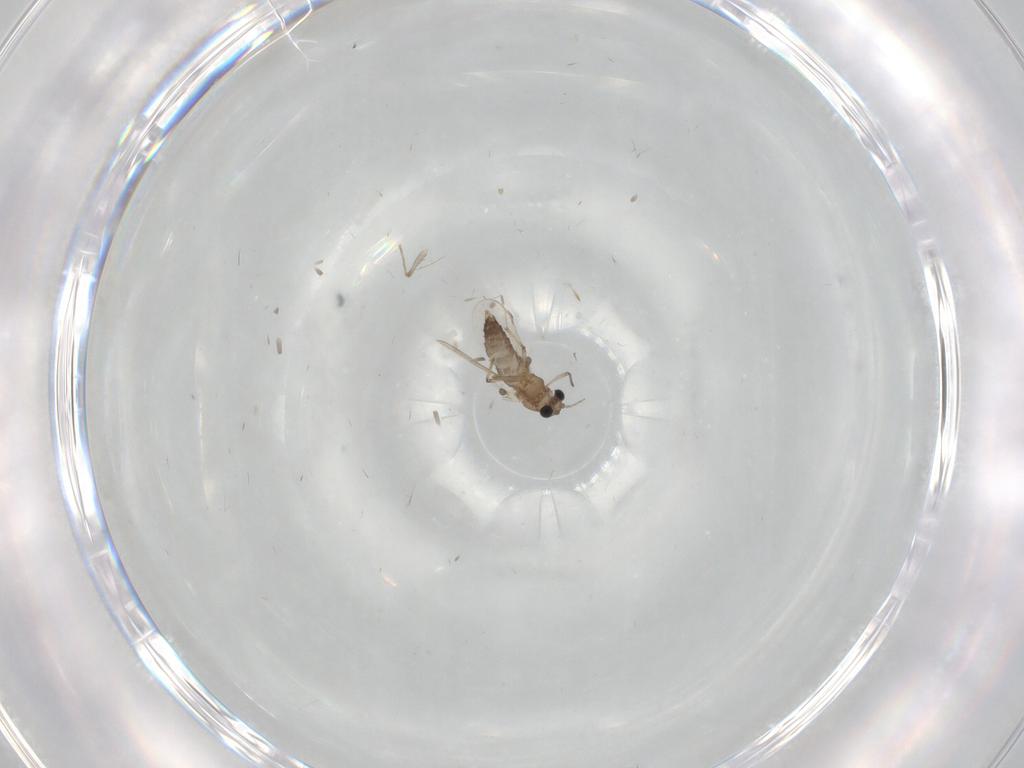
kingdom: Animalia
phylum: Arthropoda
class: Insecta
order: Diptera
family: Chironomidae
